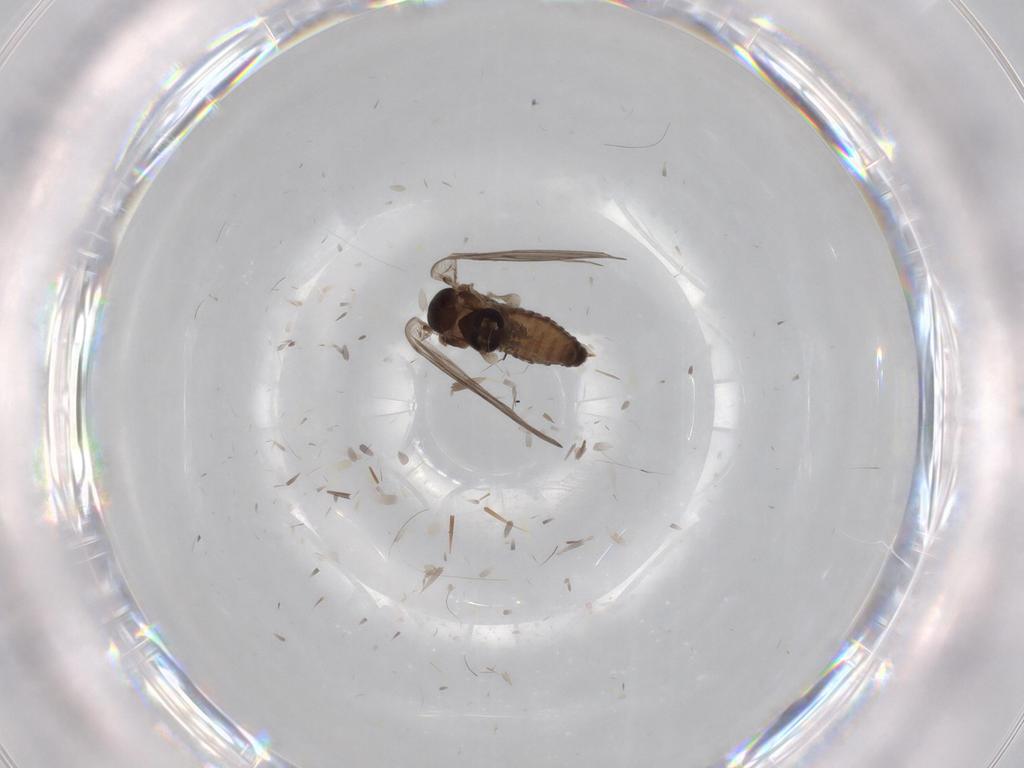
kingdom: Animalia
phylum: Arthropoda
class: Insecta
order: Diptera
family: Psychodidae
